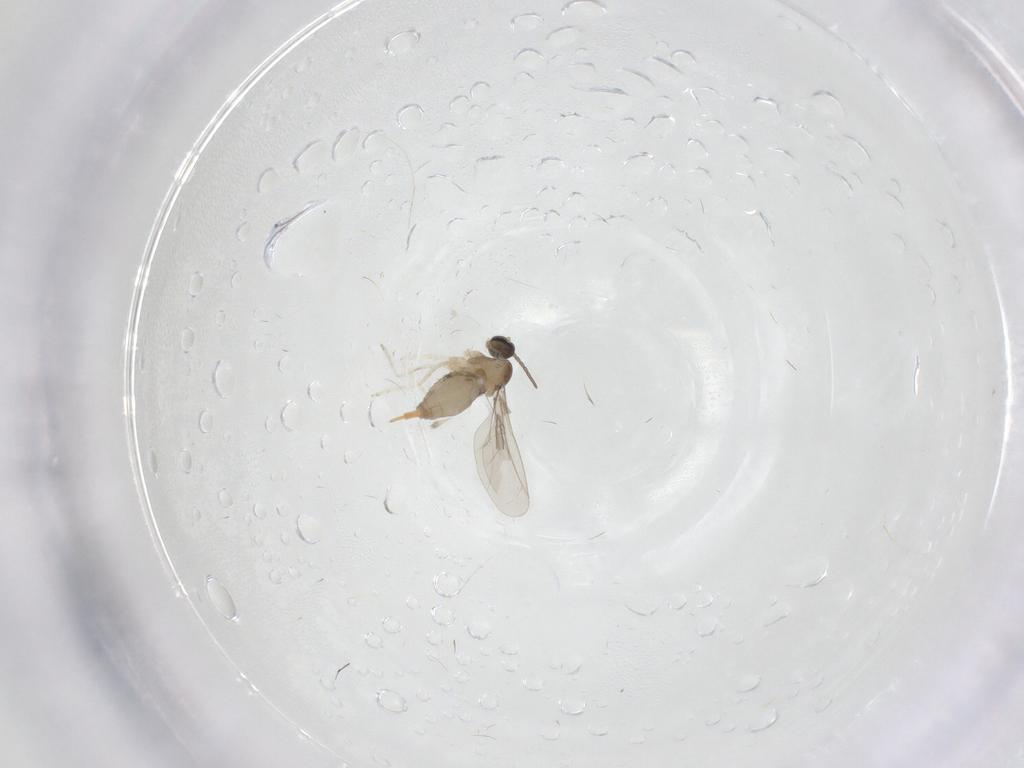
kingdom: Animalia
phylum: Arthropoda
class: Insecta
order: Diptera
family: Cecidomyiidae
